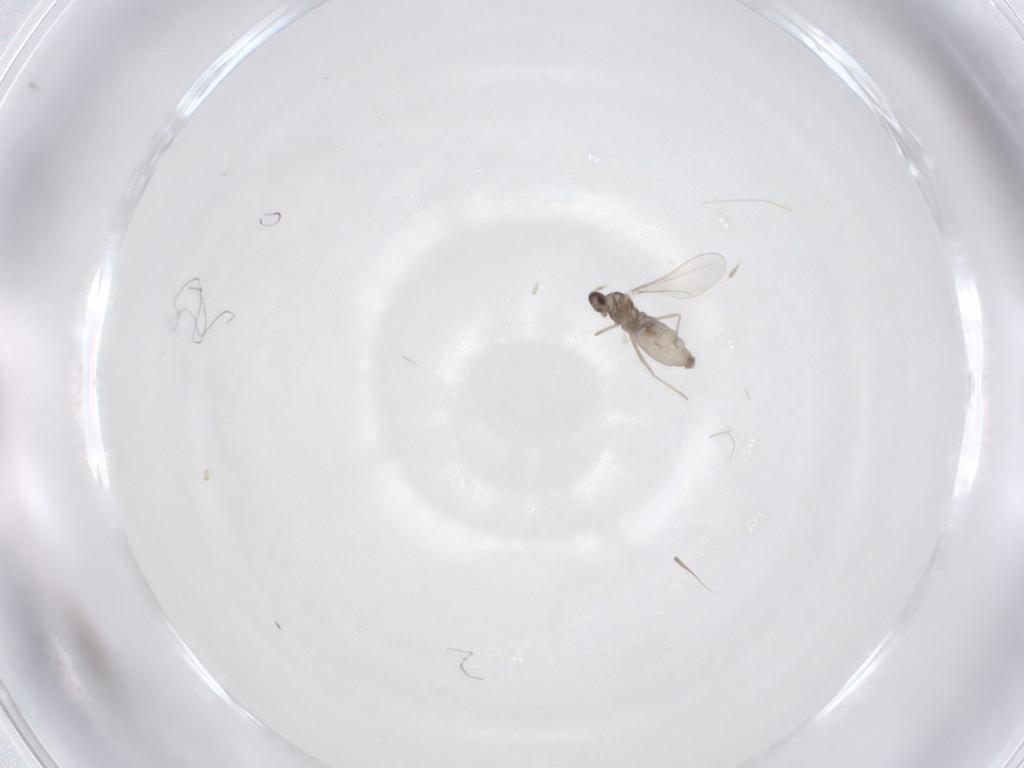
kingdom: Animalia
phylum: Arthropoda
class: Insecta
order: Diptera
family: Cecidomyiidae
